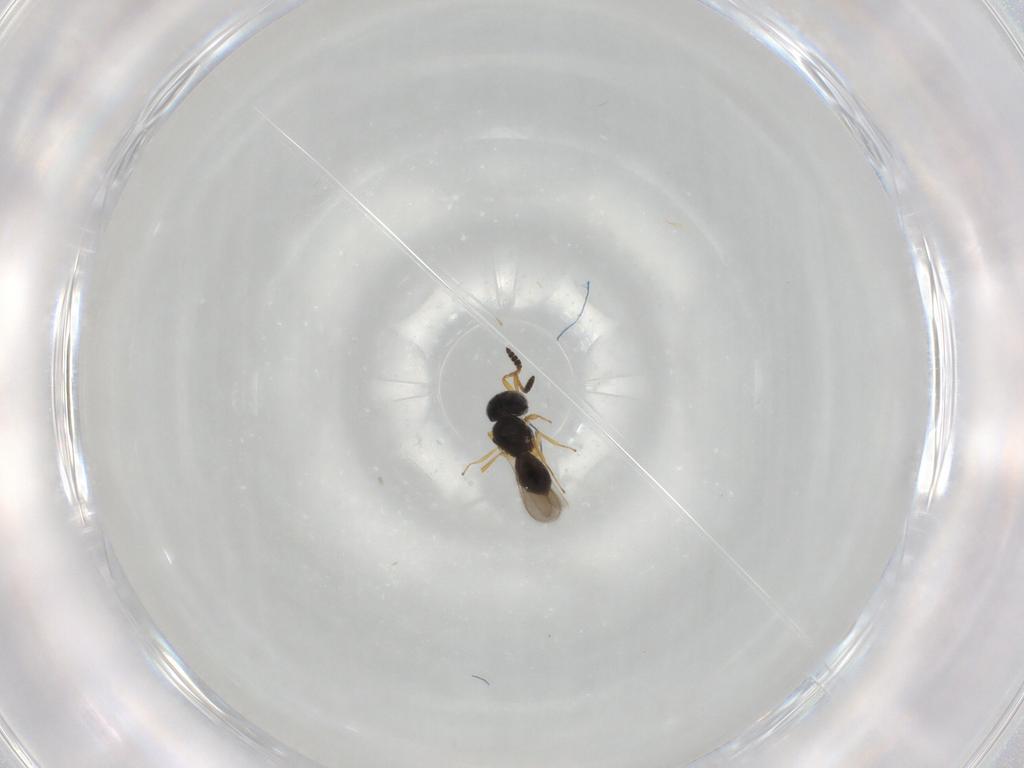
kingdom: Animalia
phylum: Arthropoda
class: Insecta
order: Hymenoptera
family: Scelionidae
